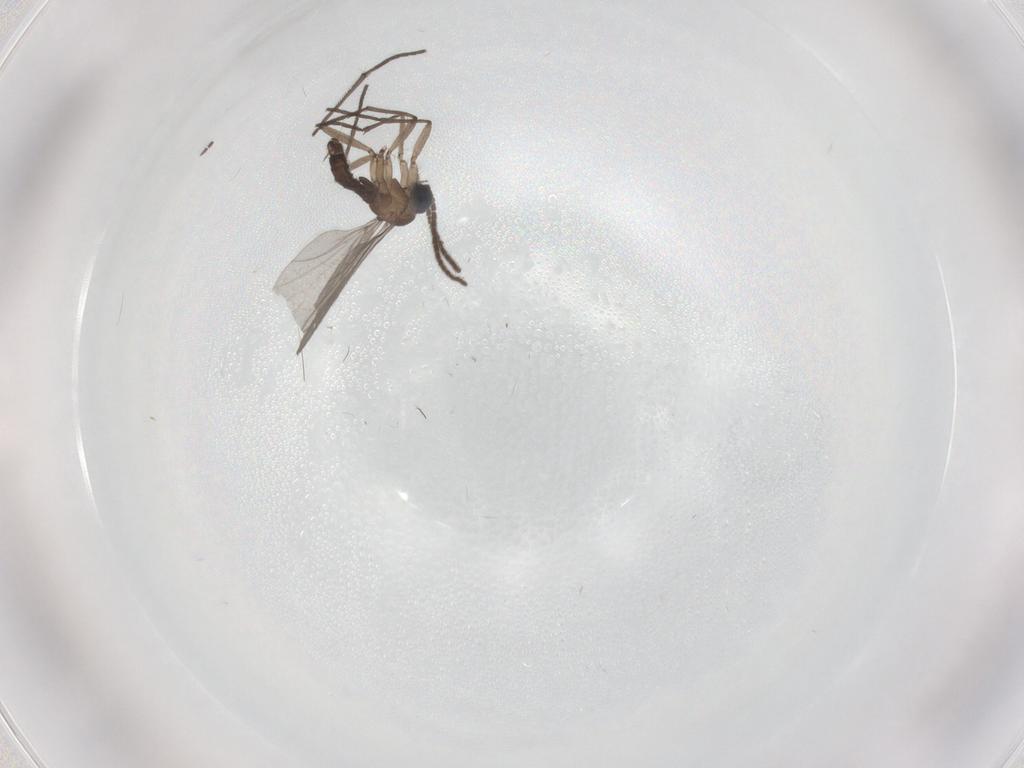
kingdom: Animalia
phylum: Arthropoda
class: Insecta
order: Diptera
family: Sciaridae
